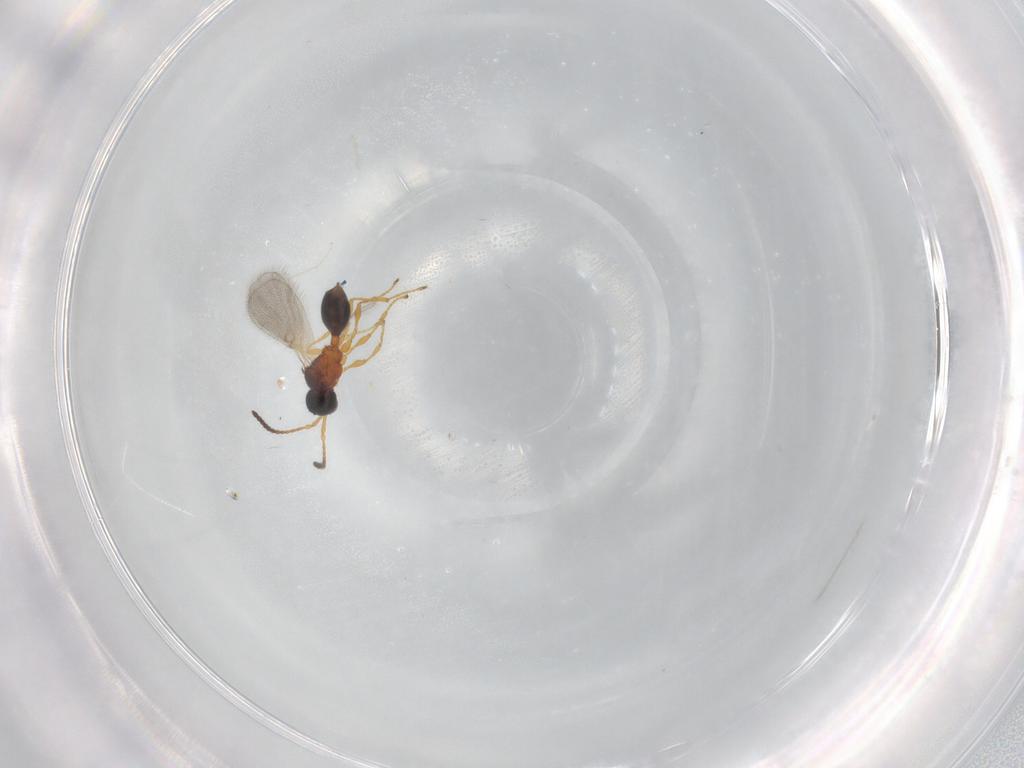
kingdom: Animalia
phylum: Arthropoda
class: Insecta
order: Hymenoptera
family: Diapriidae
